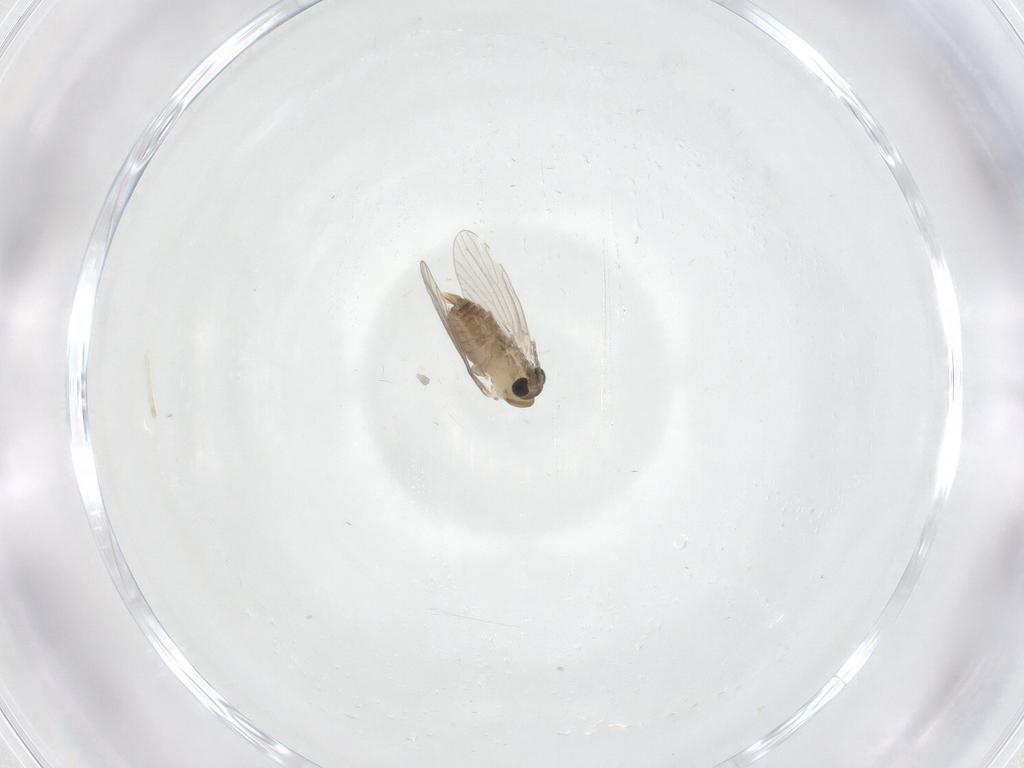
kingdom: Animalia
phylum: Arthropoda
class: Insecta
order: Diptera
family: Psychodidae
